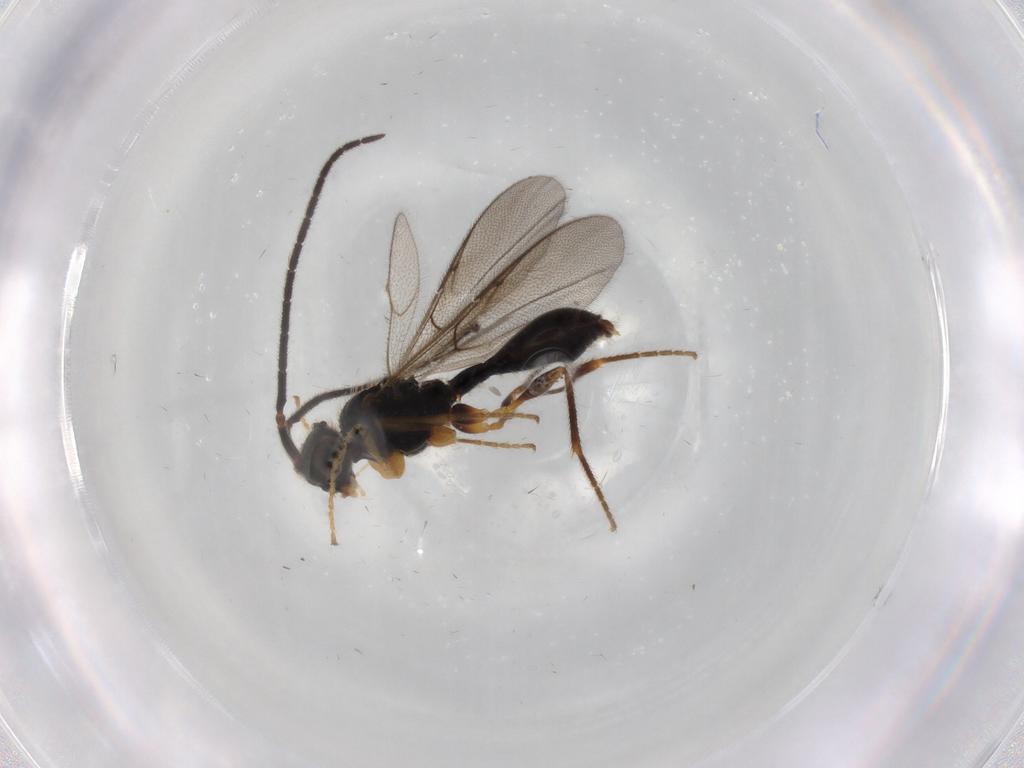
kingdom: Animalia
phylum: Arthropoda
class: Insecta
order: Hymenoptera
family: Diapriidae
